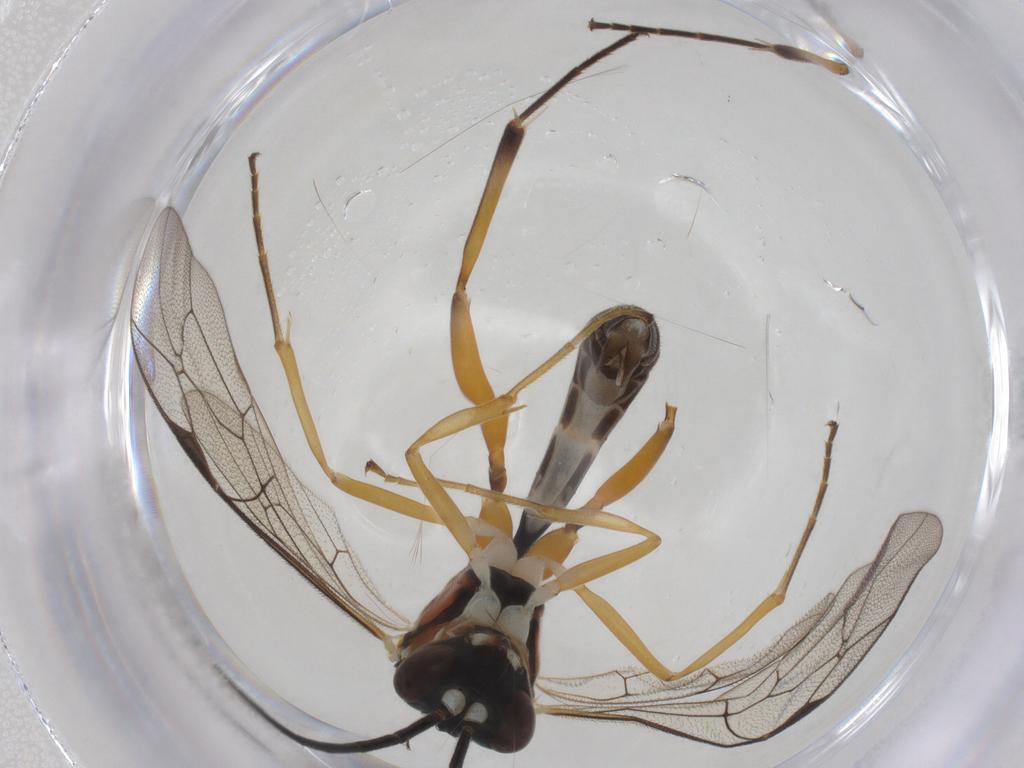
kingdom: Animalia
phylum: Arthropoda
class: Insecta
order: Hymenoptera
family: Ichneumonidae
